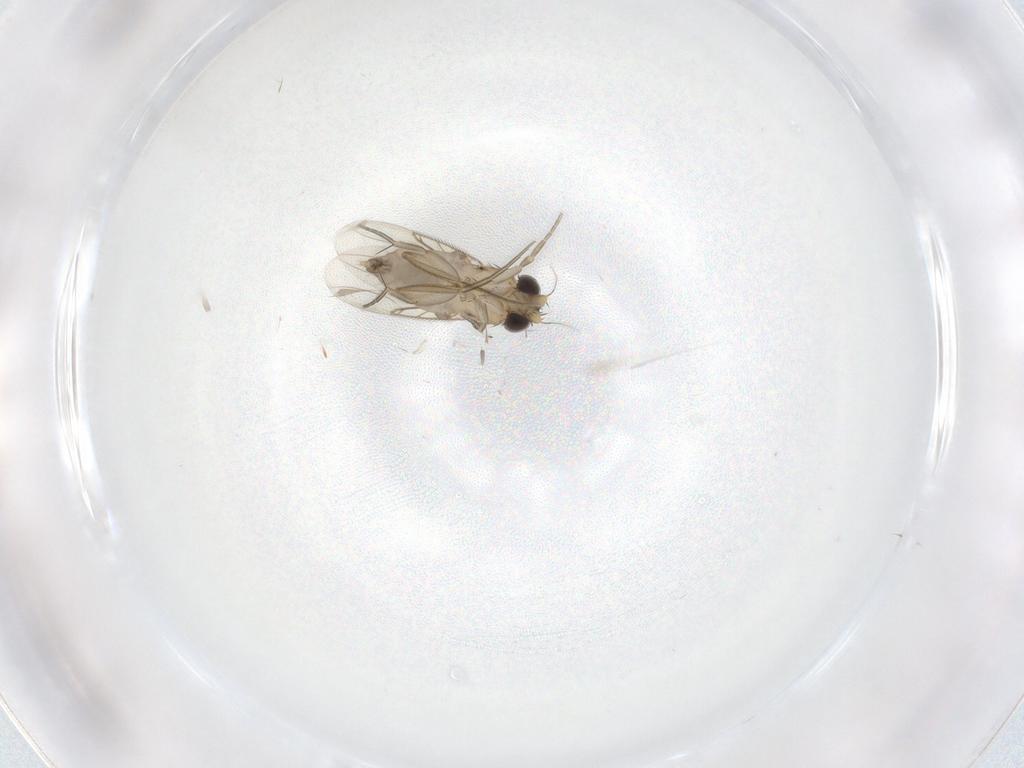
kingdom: Animalia
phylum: Arthropoda
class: Insecta
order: Diptera
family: Phoridae
